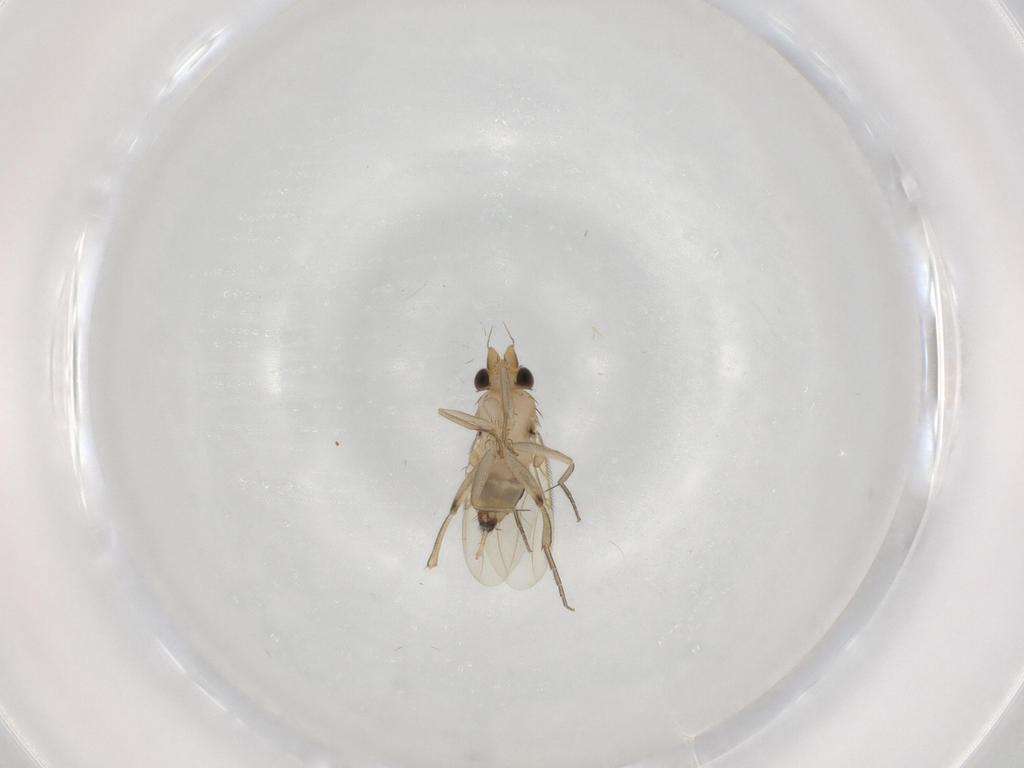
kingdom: Animalia
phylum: Arthropoda
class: Insecta
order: Diptera
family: Phoridae
